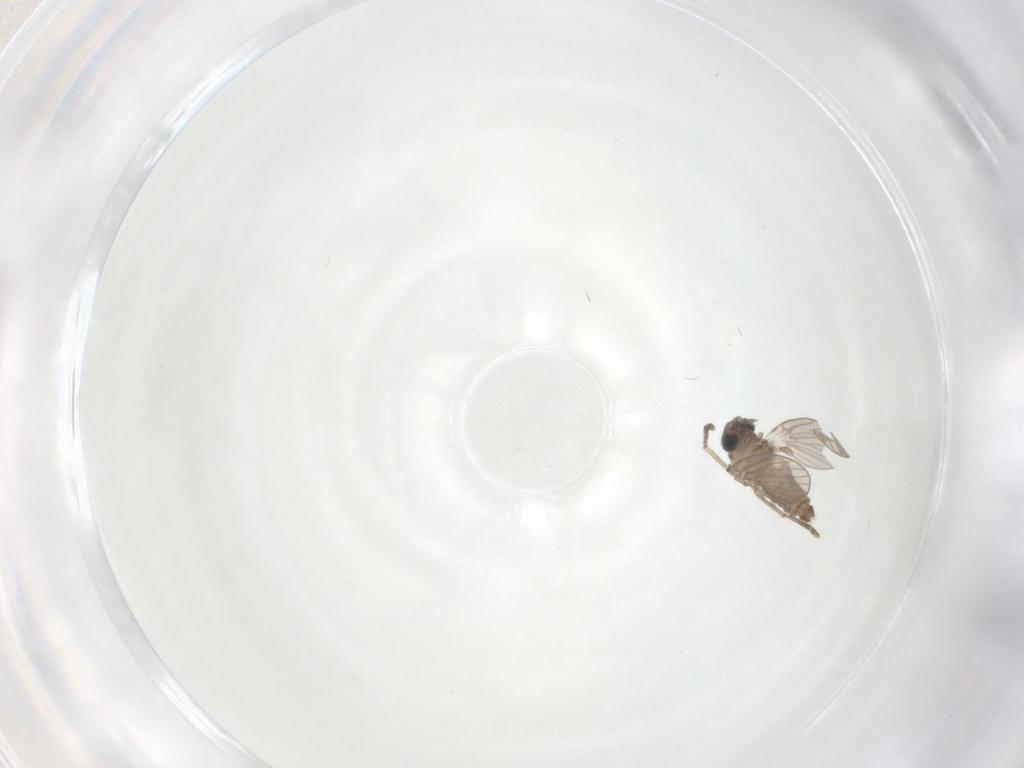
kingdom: Animalia
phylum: Arthropoda
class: Insecta
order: Diptera
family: Psychodidae
